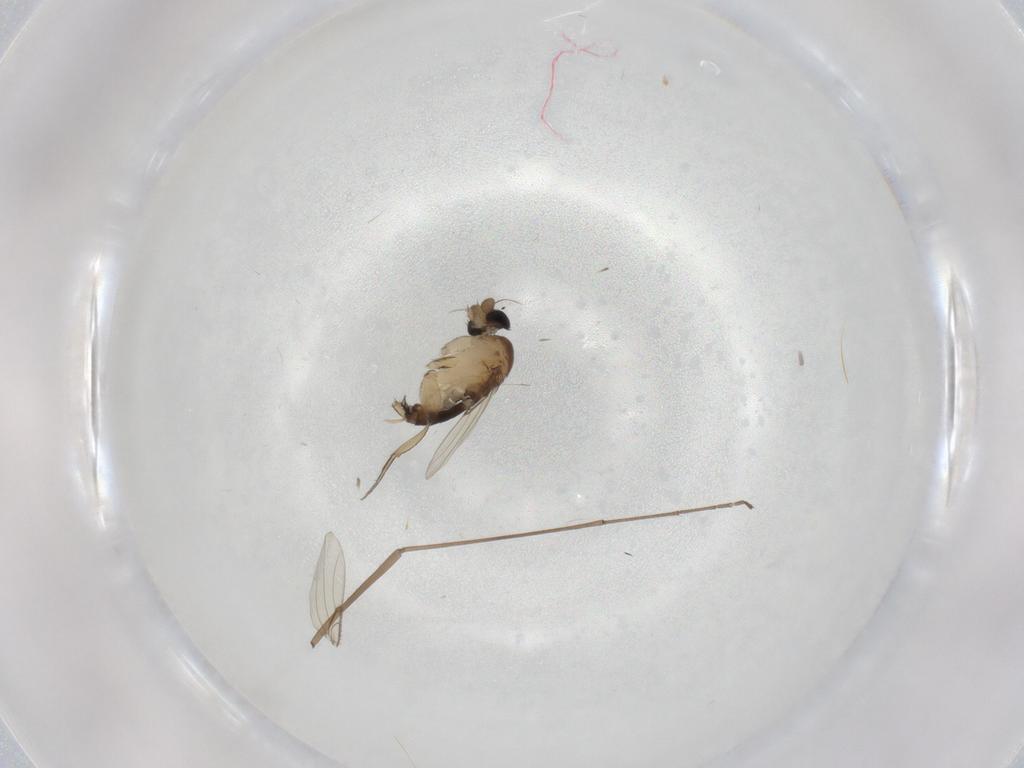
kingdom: Animalia
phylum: Arthropoda
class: Insecta
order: Diptera
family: Phoridae
